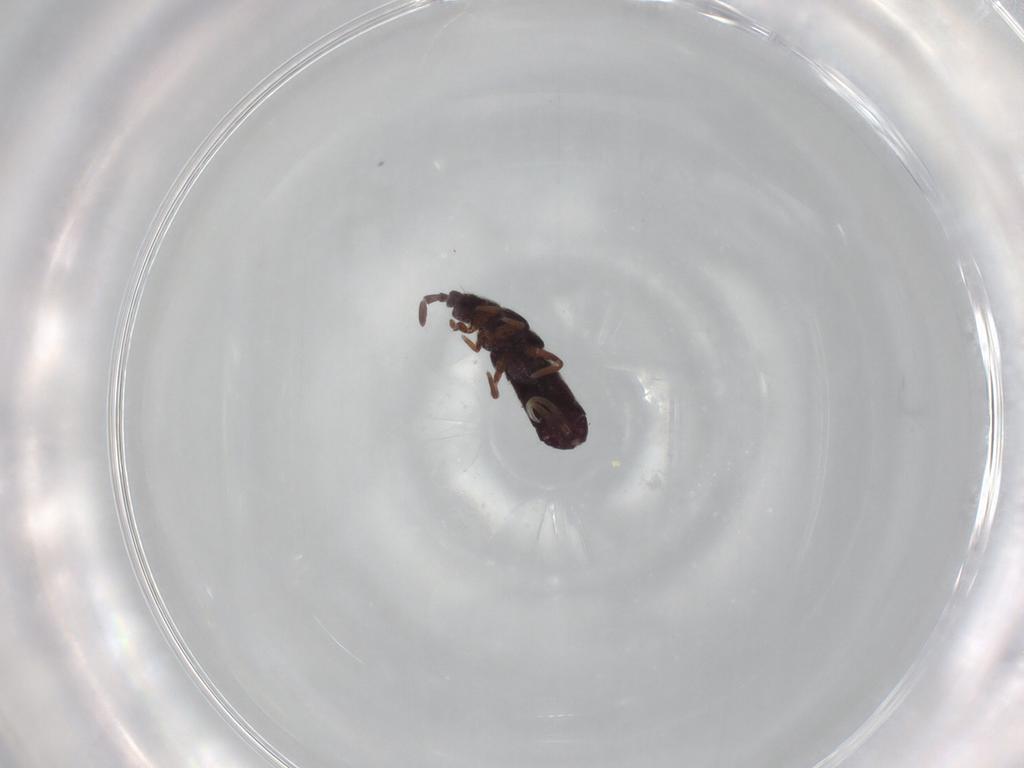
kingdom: Animalia
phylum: Arthropoda
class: Collembola
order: Entomobryomorpha
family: Isotomidae
